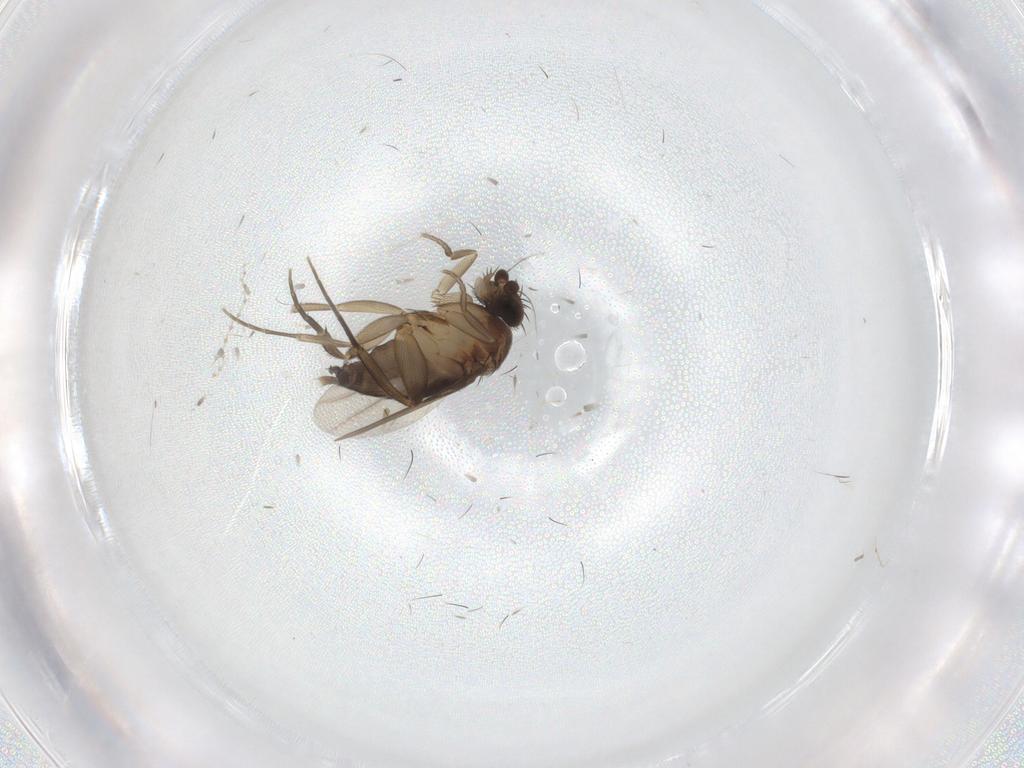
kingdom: Animalia
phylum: Arthropoda
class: Insecta
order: Diptera
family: Phoridae
